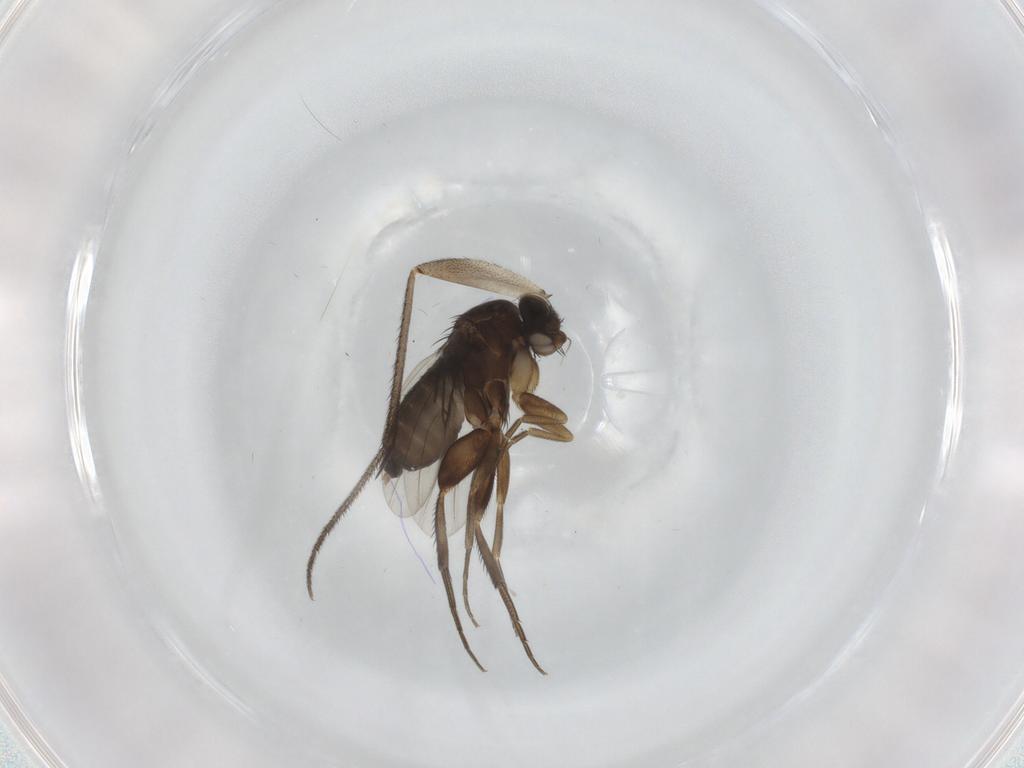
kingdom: Animalia
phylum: Arthropoda
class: Insecta
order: Diptera
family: Phoridae
